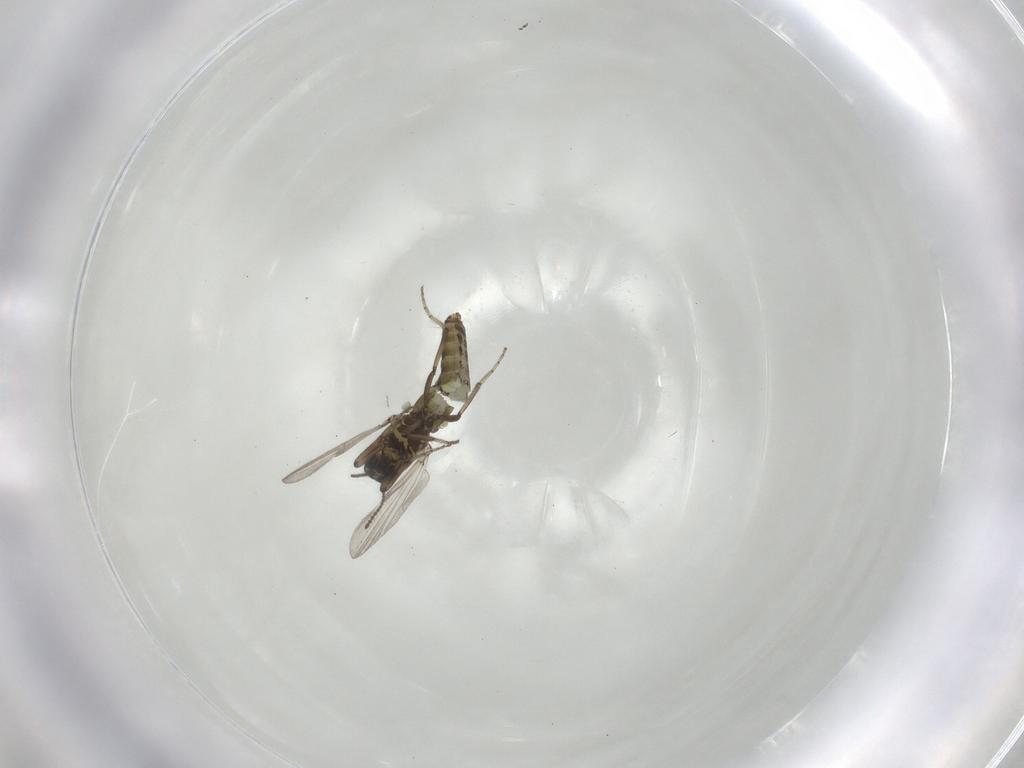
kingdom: Animalia
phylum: Arthropoda
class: Insecta
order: Diptera
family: Ceratopogonidae
